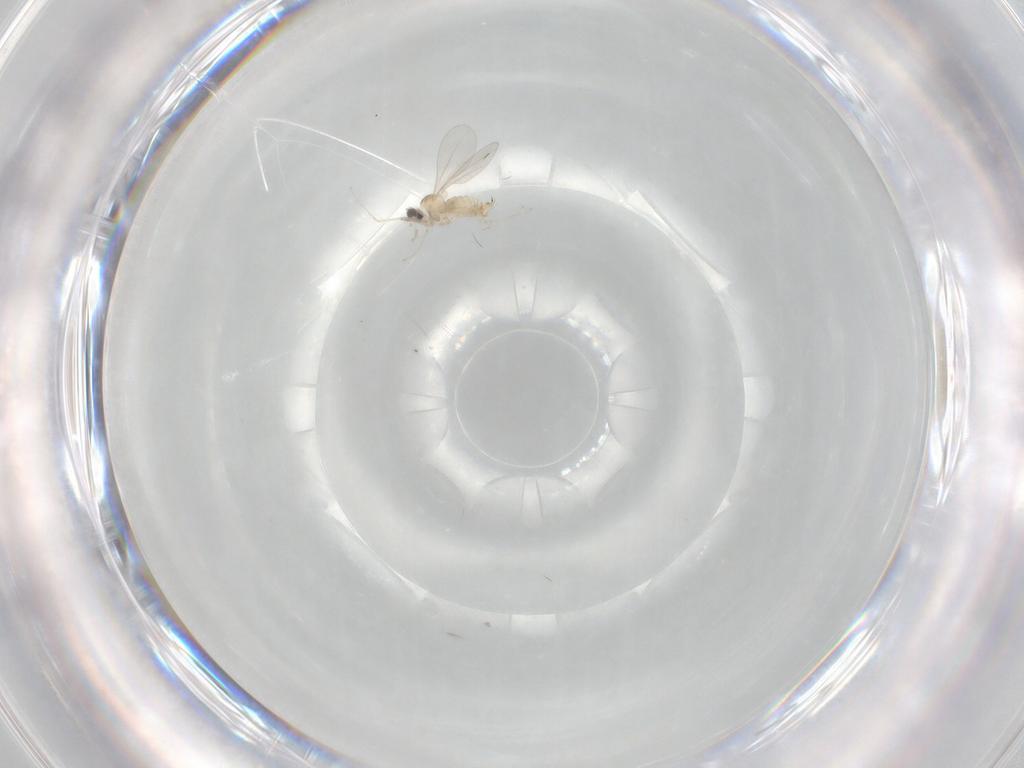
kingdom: Animalia
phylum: Arthropoda
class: Insecta
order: Diptera
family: Cecidomyiidae
